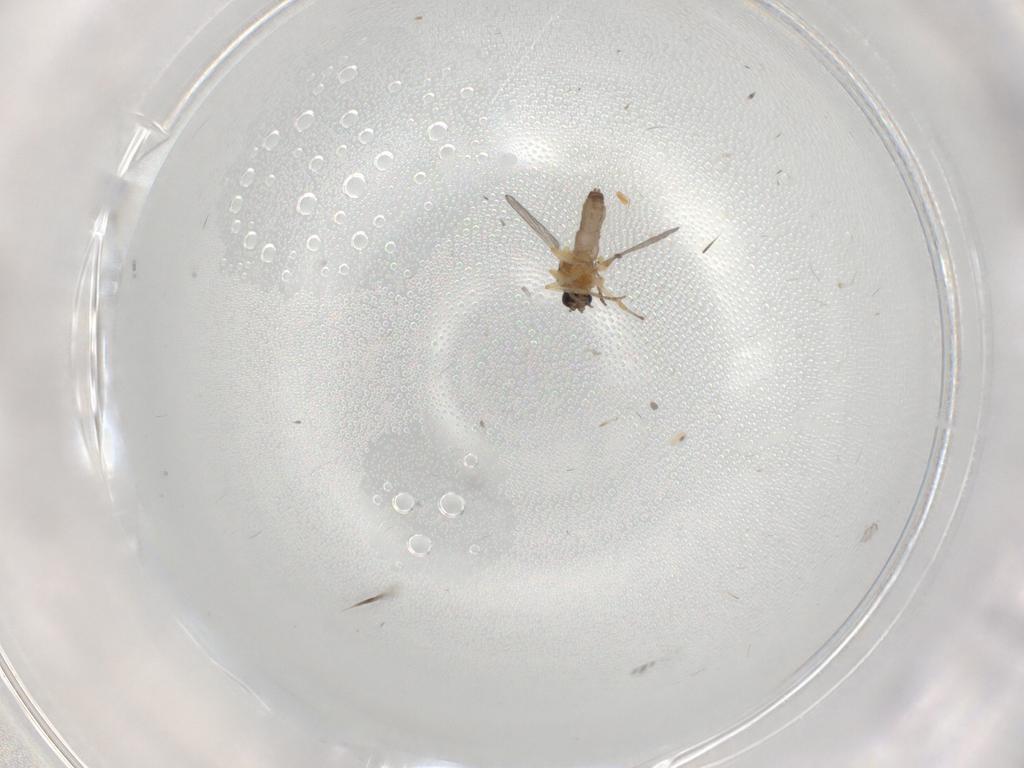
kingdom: Animalia
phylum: Arthropoda
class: Insecta
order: Diptera
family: Ceratopogonidae
